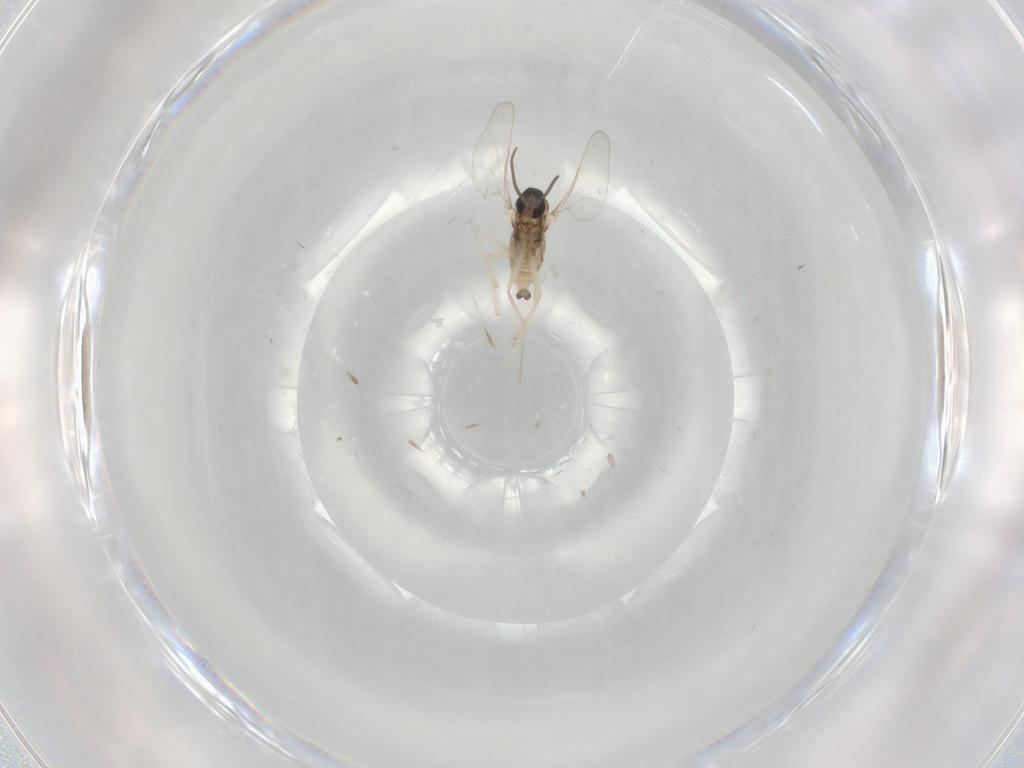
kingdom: Animalia
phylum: Arthropoda
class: Insecta
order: Diptera
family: Cecidomyiidae
